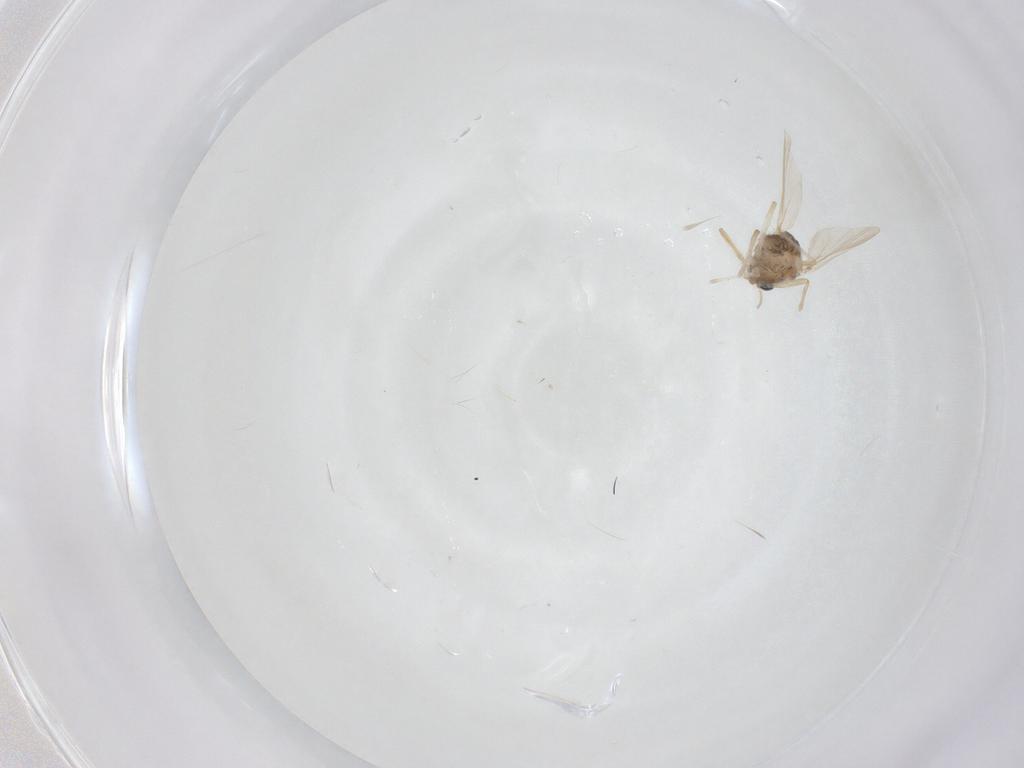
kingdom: Animalia
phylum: Arthropoda
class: Insecta
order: Diptera
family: Chironomidae
